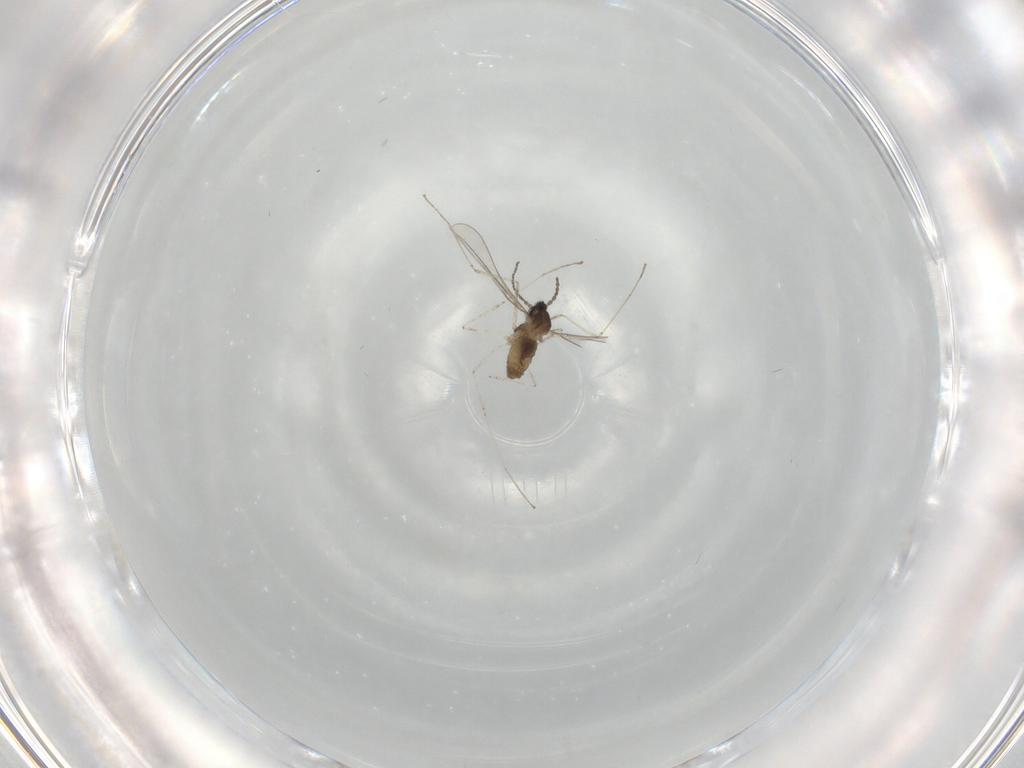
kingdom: Animalia
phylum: Arthropoda
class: Insecta
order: Diptera
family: Cecidomyiidae
